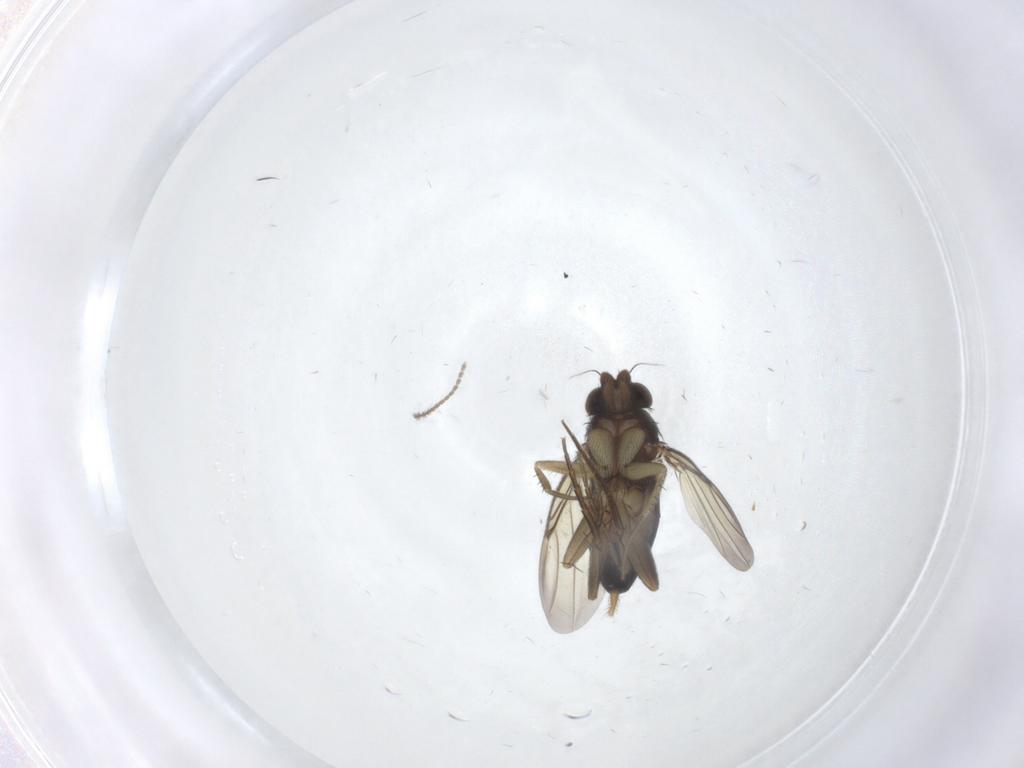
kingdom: Animalia
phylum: Arthropoda
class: Insecta
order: Diptera
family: Phoridae
